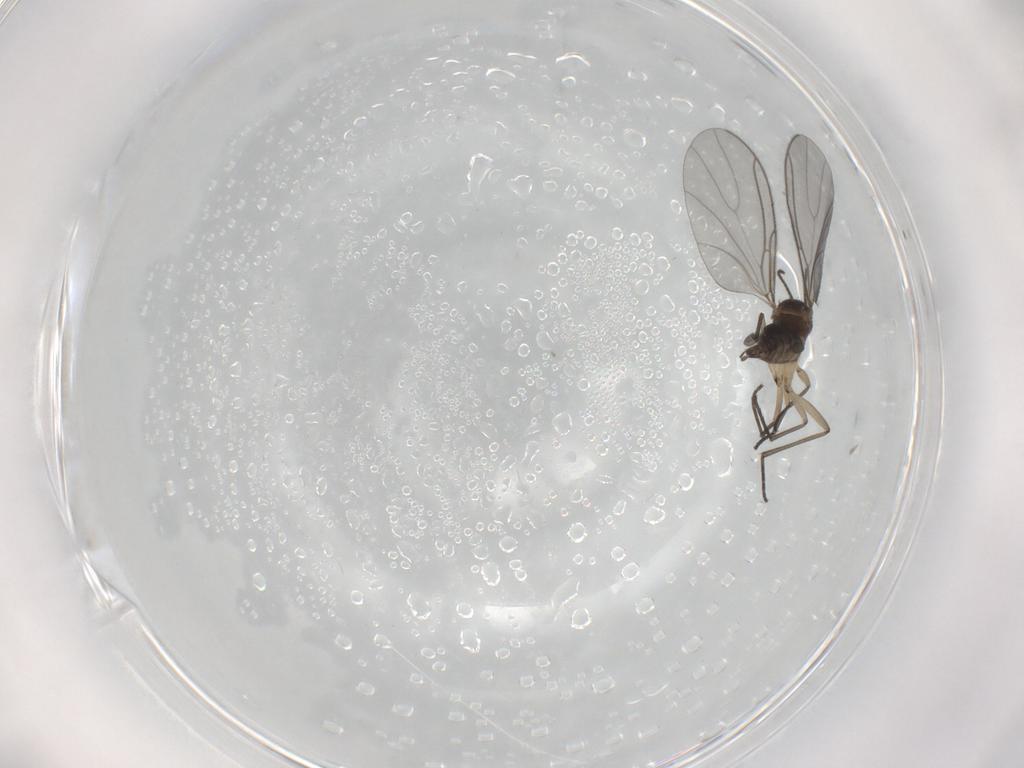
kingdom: Animalia
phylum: Arthropoda
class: Insecta
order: Diptera
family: Sciaridae
